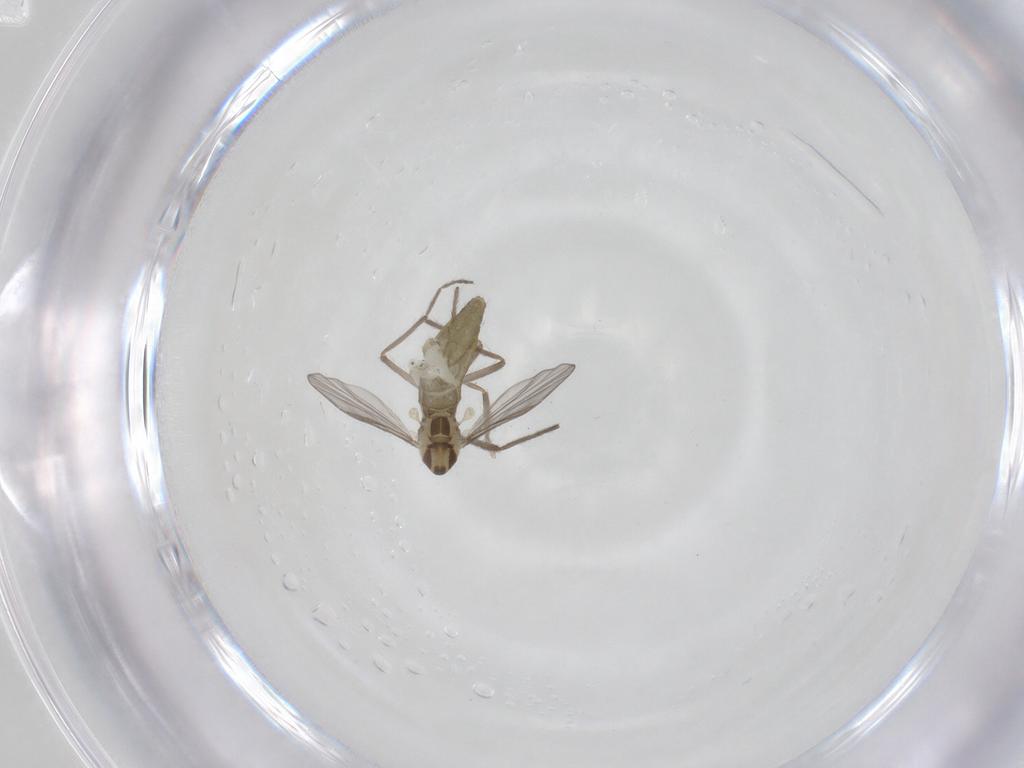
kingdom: Animalia
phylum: Arthropoda
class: Insecta
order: Diptera
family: Chironomidae
